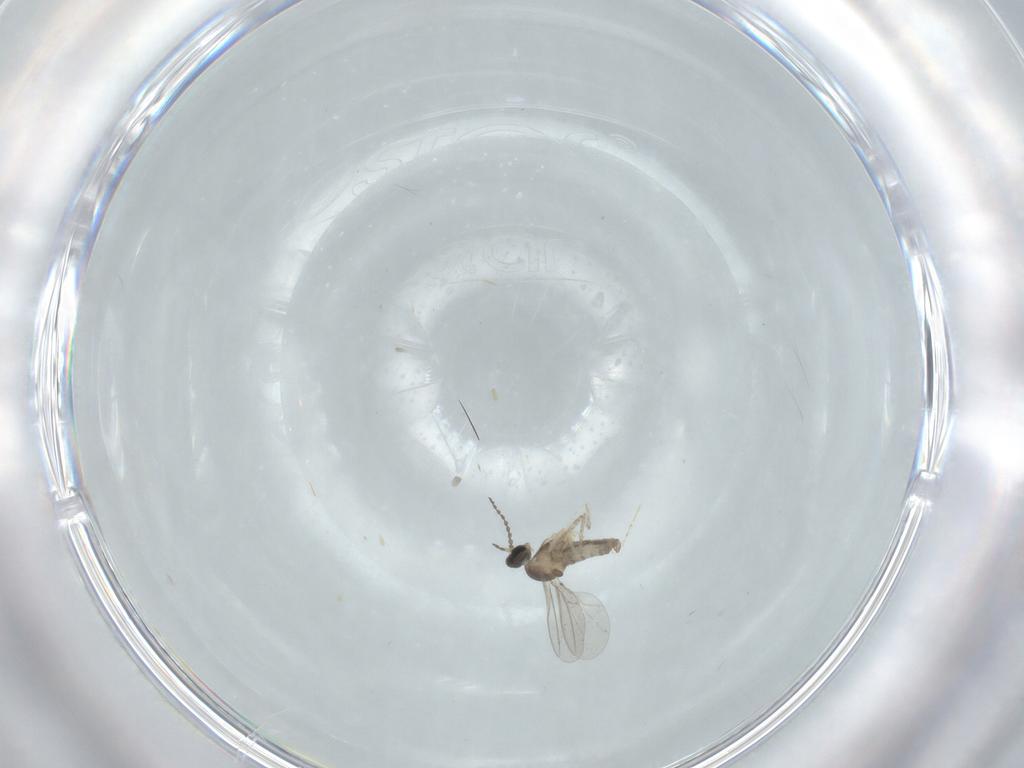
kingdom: Animalia
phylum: Arthropoda
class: Insecta
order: Diptera
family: Cecidomyiidae
